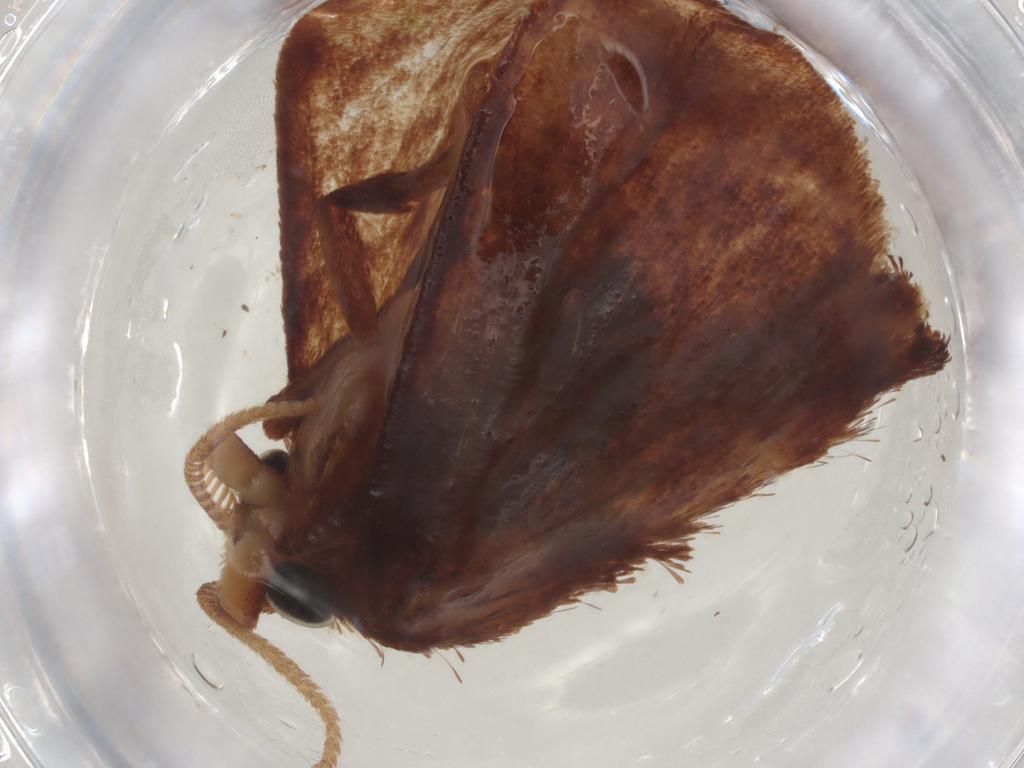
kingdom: Animalia
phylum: Arthropoda
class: Insecta
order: Lepidoptera
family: Limacodidae
